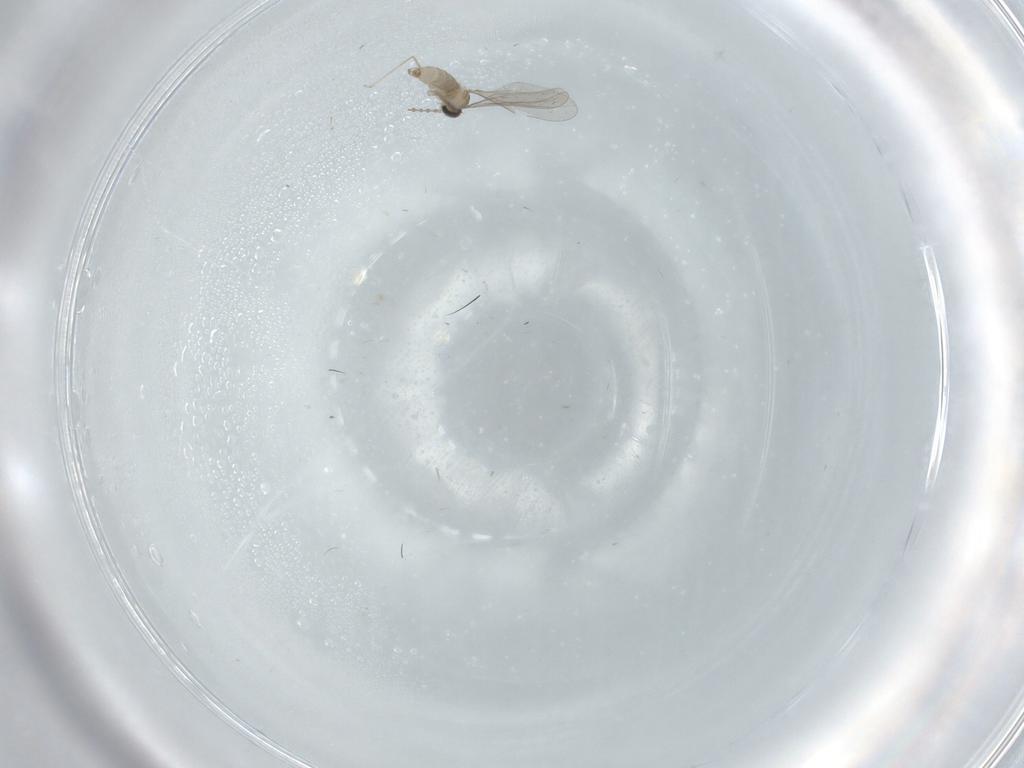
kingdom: Animalia
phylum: Arthropoda
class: Insecta
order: Diptera
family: Cecidomyiidae
